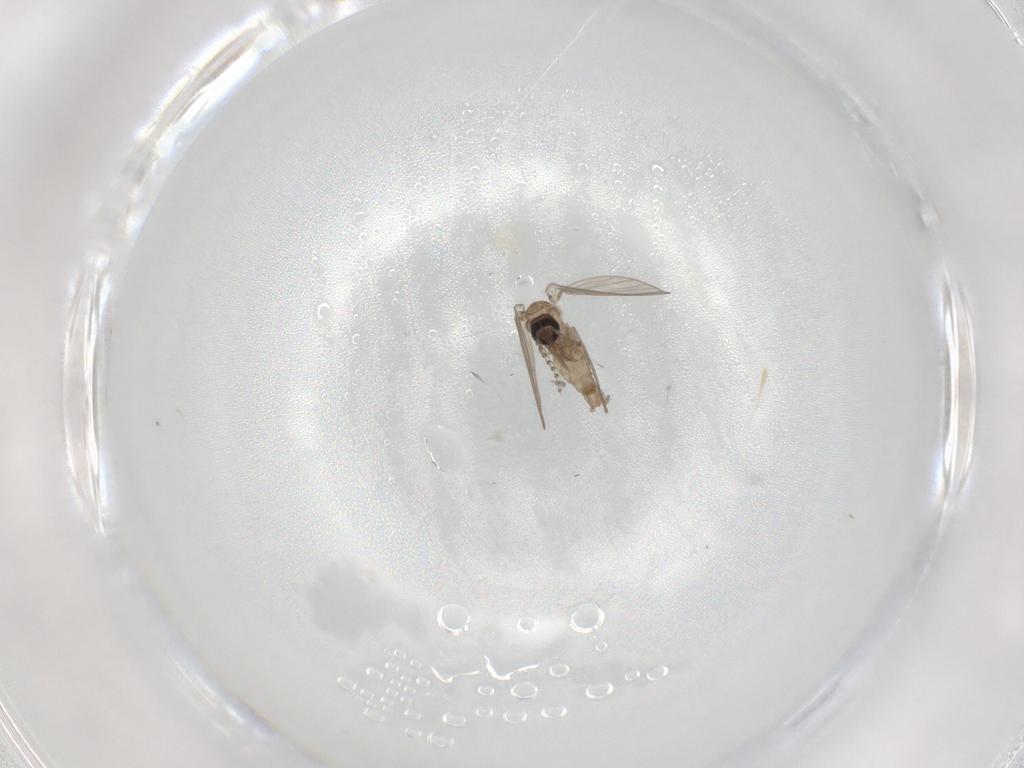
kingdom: Animalia
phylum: Arthropoda
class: Insecta
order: Diptera
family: Psychodidae
